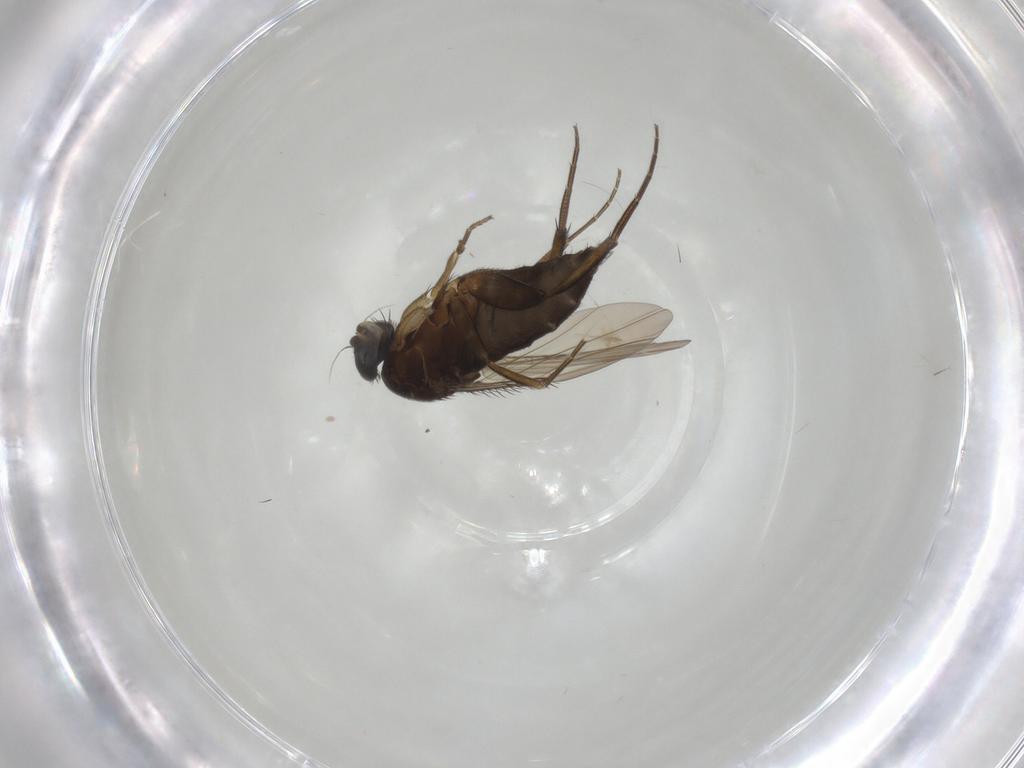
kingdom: Animalia
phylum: Arthropoda
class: Insecta
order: Diptera
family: Phoridae
